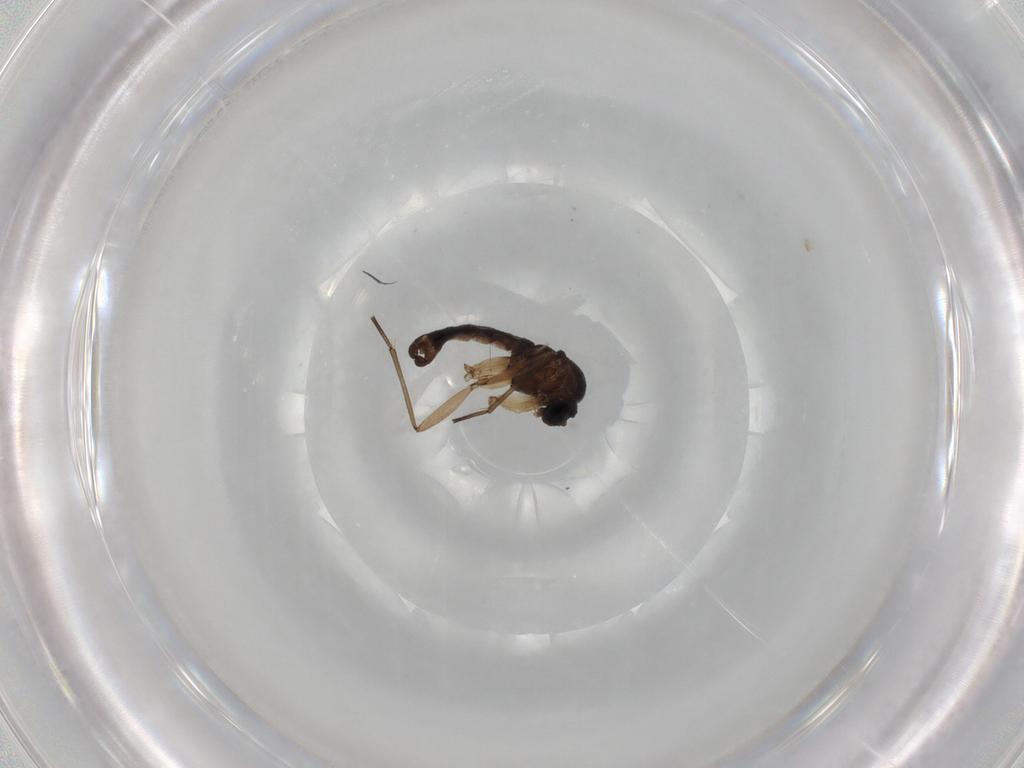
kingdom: Animalia
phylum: Arthropoda
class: Insecta
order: Diptera
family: Sciaridae
